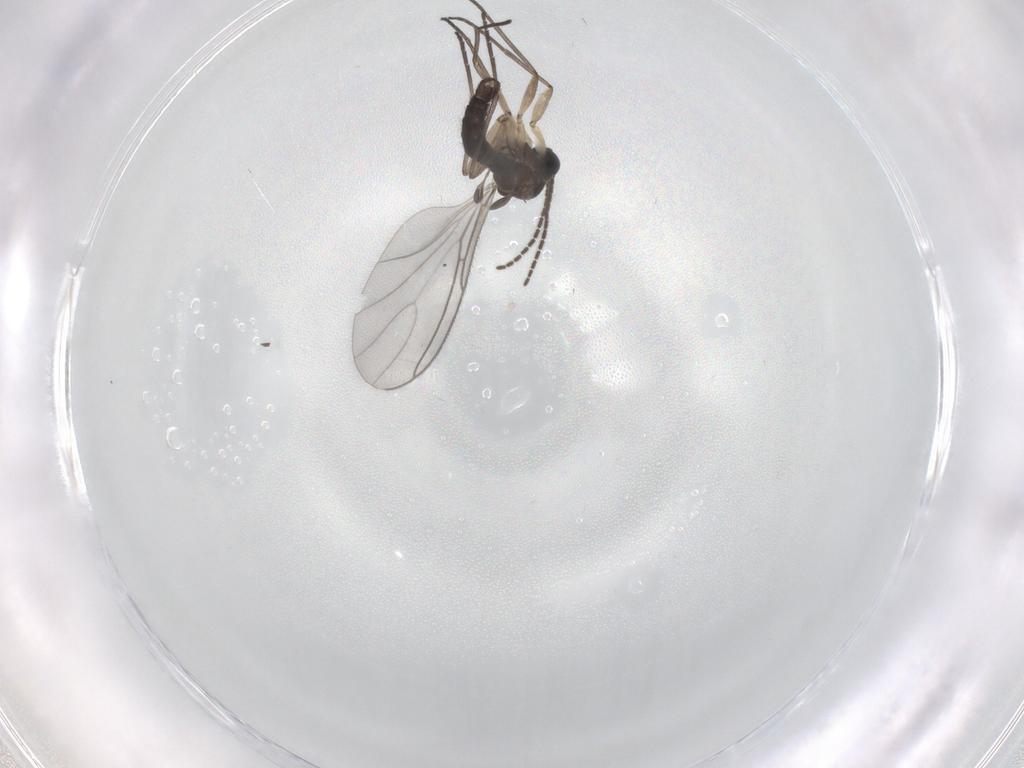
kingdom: Animalia
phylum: Arthropoda
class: Insecta
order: Diptera
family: Sciaridae
